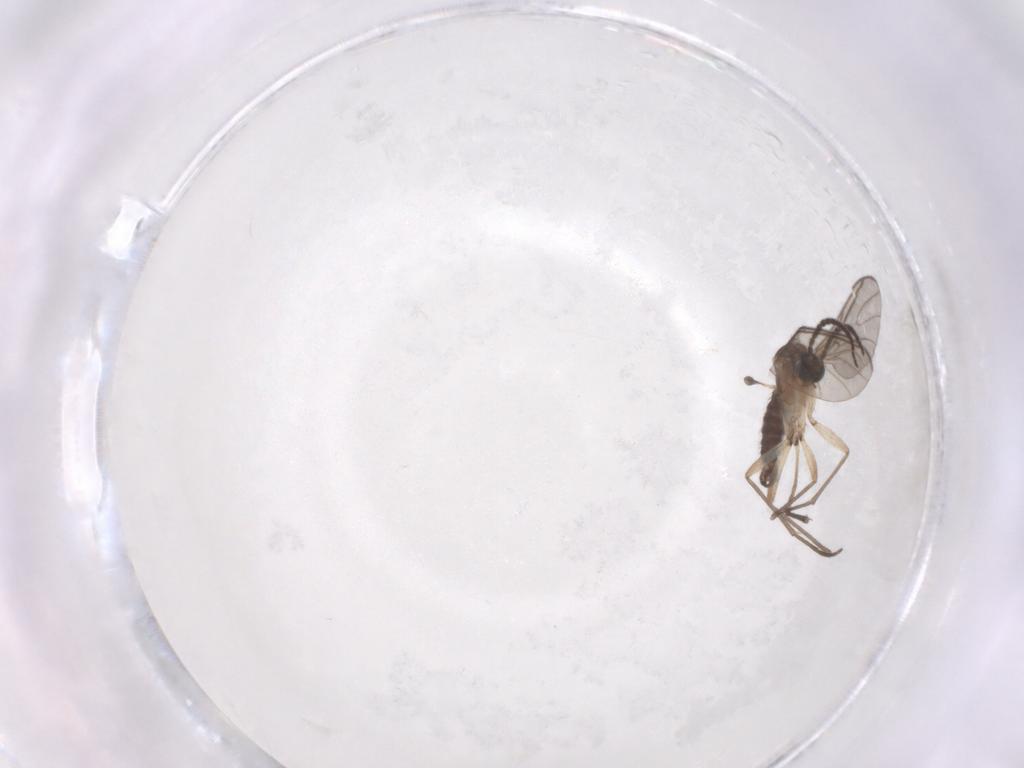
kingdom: Animalia
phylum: Arthropoda
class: Insecta
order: Diptera
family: Sciaridae
